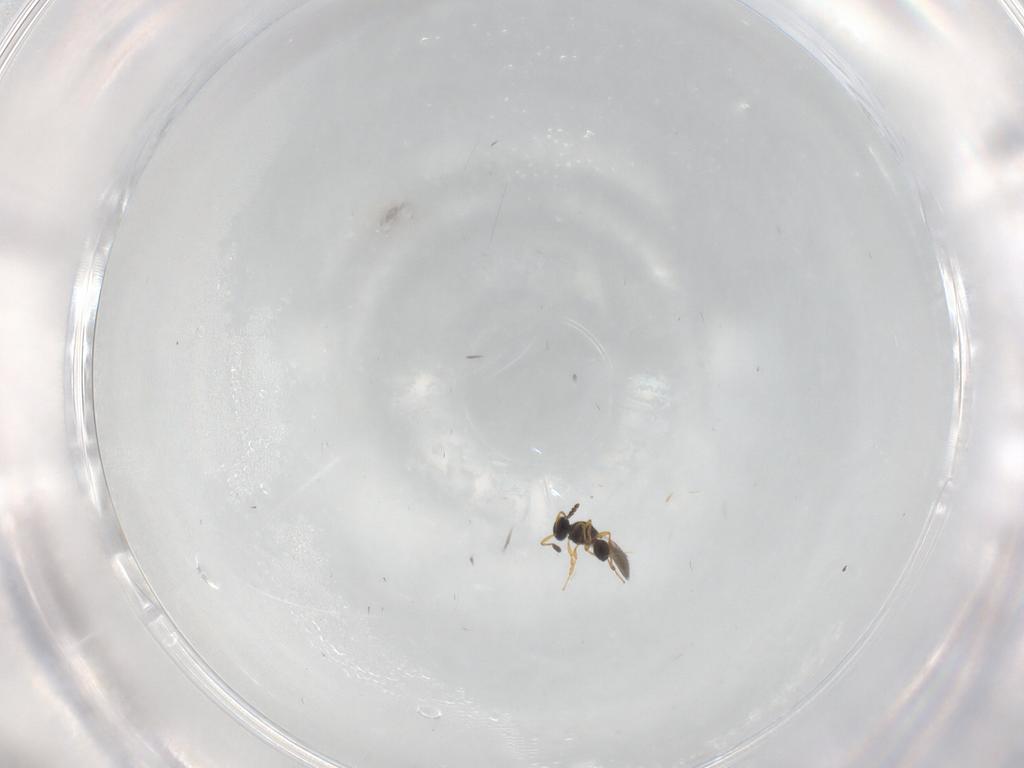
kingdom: Animalia
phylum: Arthropoda
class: Insecta
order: Hymenoptera
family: Platygastridae
